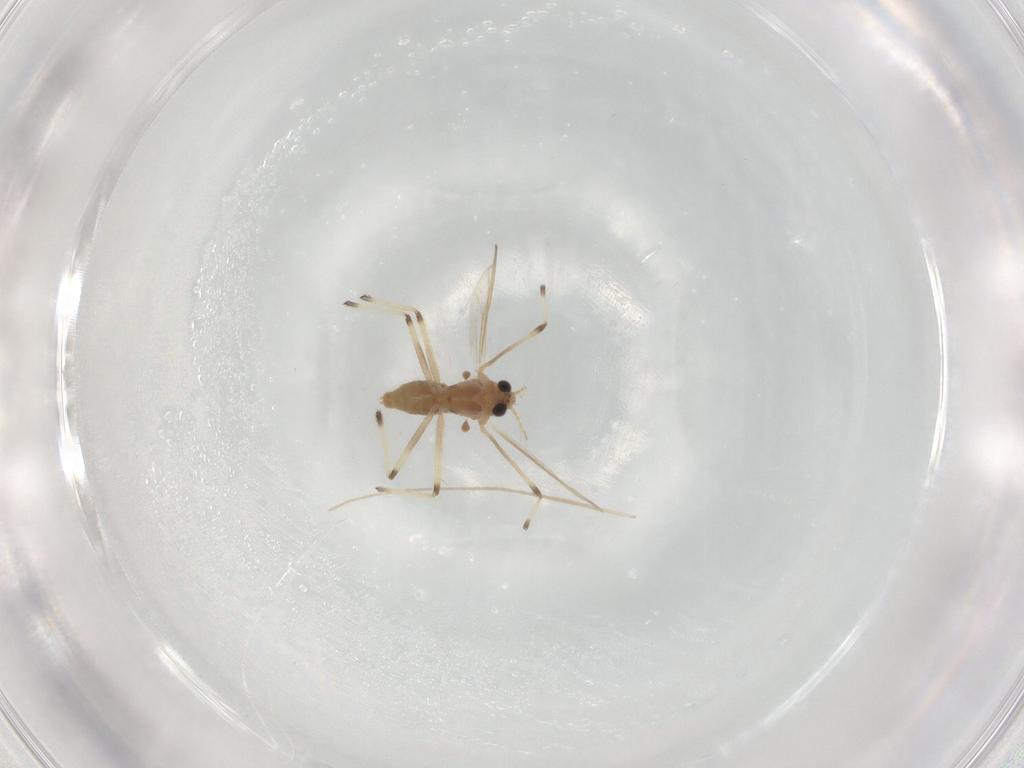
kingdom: Animalia
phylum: Arthropoda
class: Insecta
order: Diptera
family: Chironomidae
